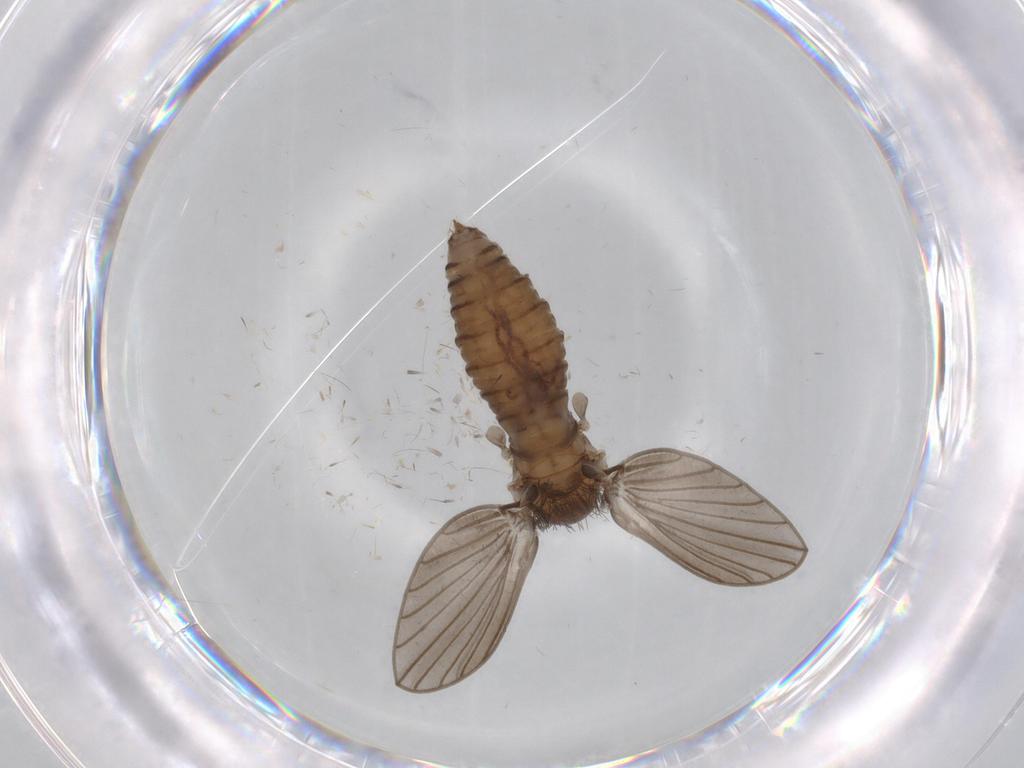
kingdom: Animalia
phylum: Arthropoda
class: Insecta
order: Diptera
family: Psychodidae
